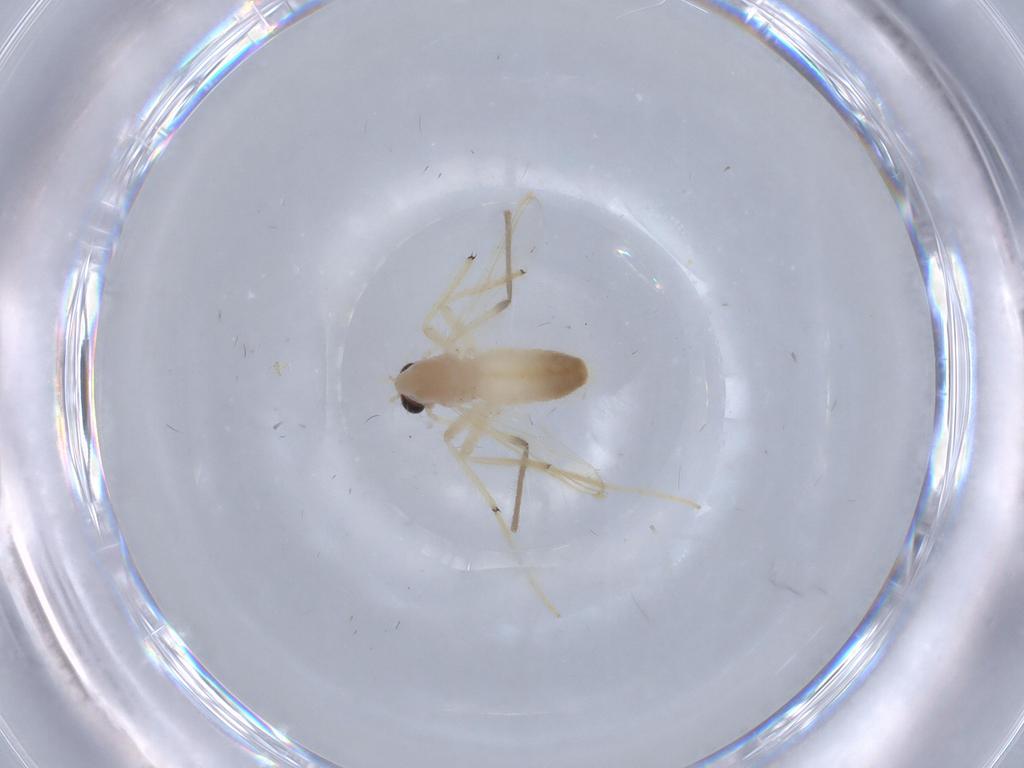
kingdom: Animalia
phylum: Arthropoda
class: Insecta
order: Diptera
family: Chironomidae
